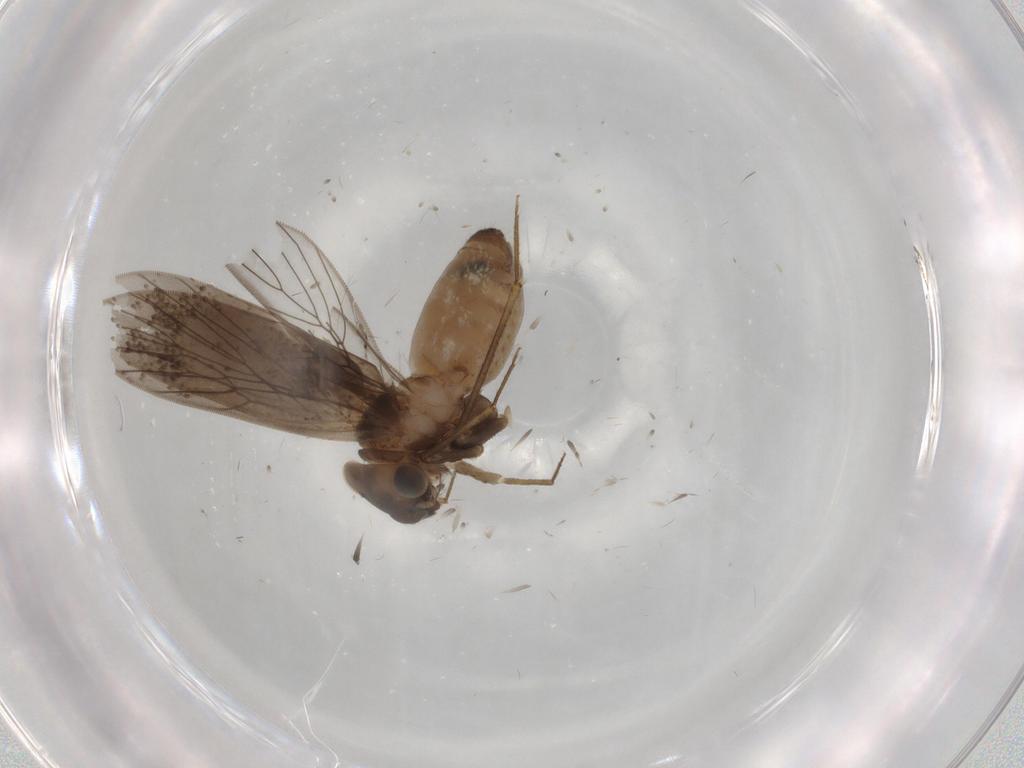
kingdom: Animalia
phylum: Arthropoda
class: Insecta
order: Psocodea
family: Lepidopsocidae
